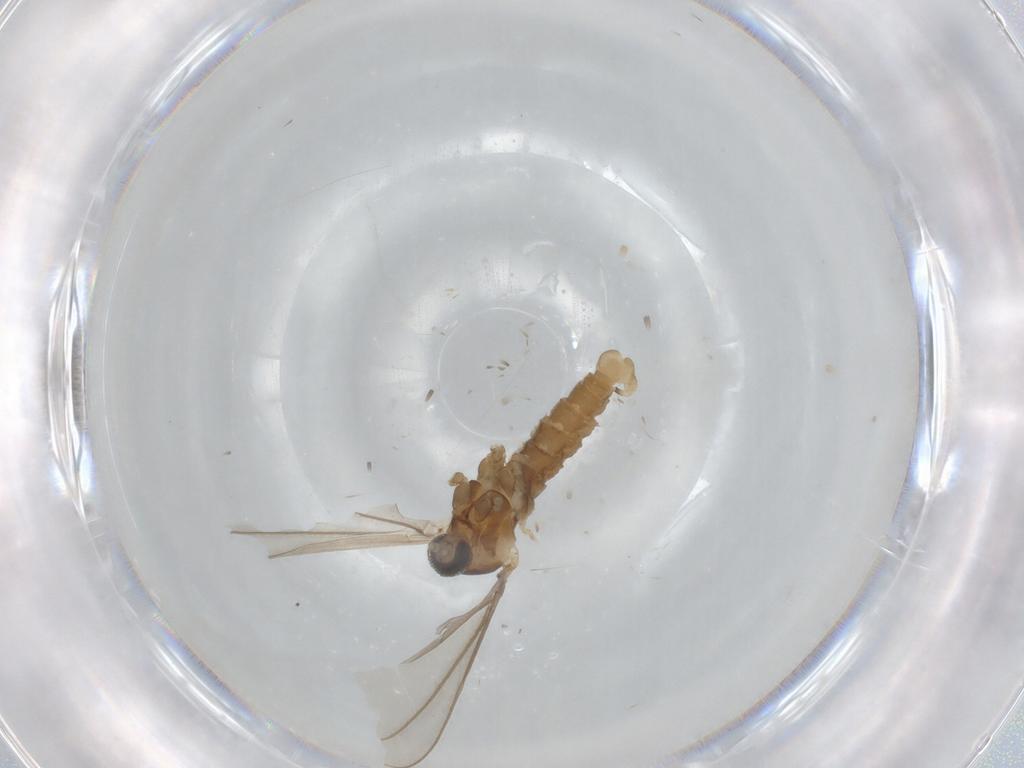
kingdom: Animalia
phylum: Arthropoda
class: Insecta
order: Diptera
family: Cecidomyiidae
